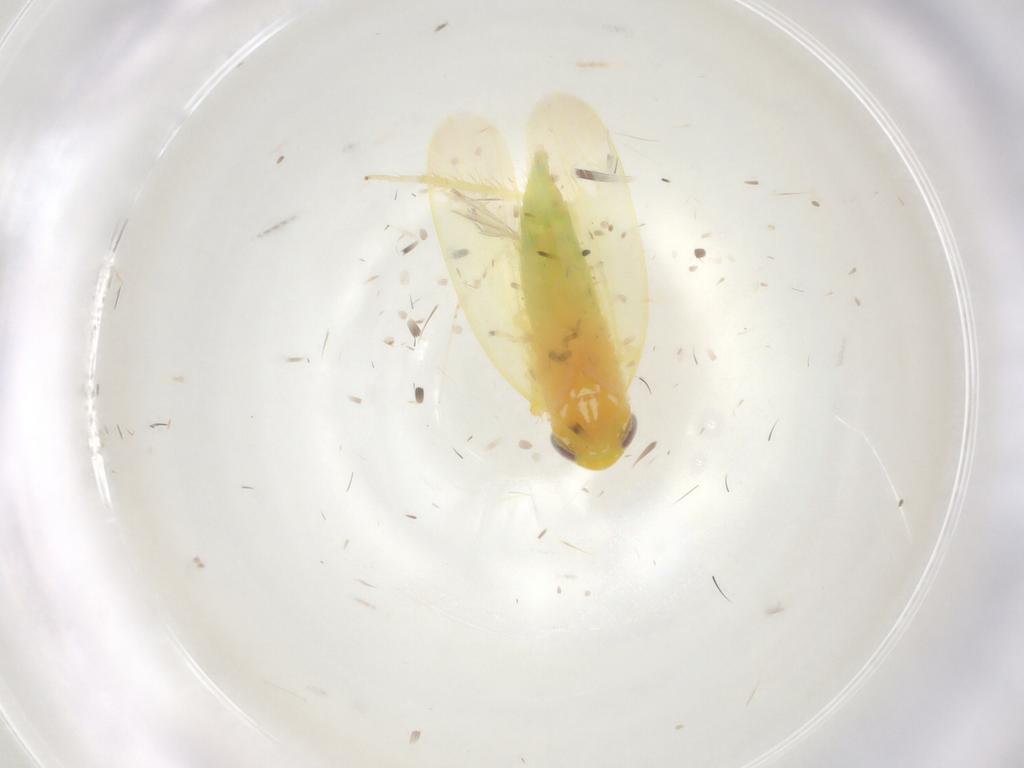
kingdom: Animalia
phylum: Arthropoda
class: Insecta
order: Hemiptera
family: Cicadellidae
